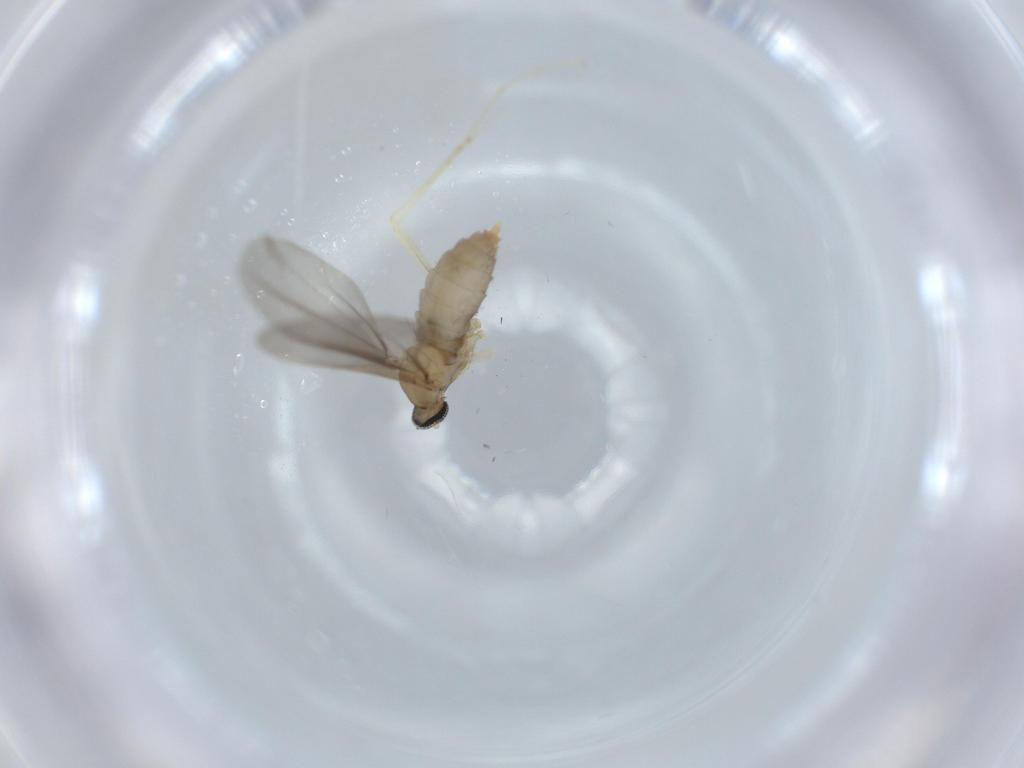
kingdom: Animalia
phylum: Arthropoda
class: Insecta
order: Diptera
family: Cecidomyiidae
